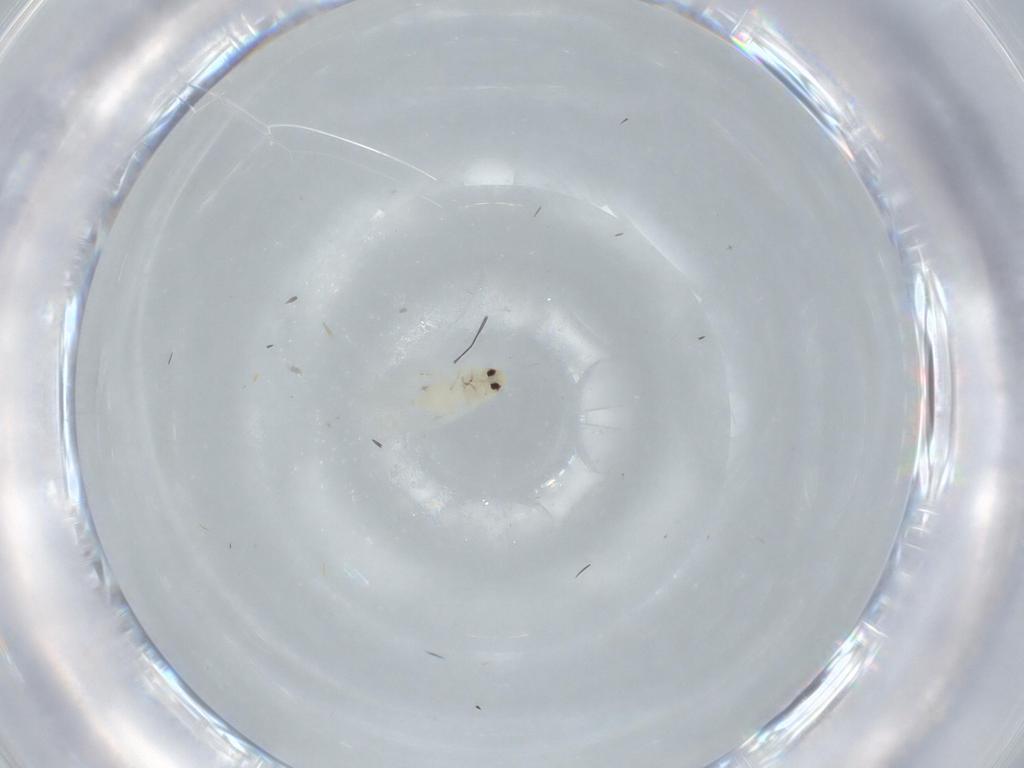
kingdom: Animalia
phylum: Arthropoda
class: Insecta
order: Hemiptera
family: Aleyrodidae
